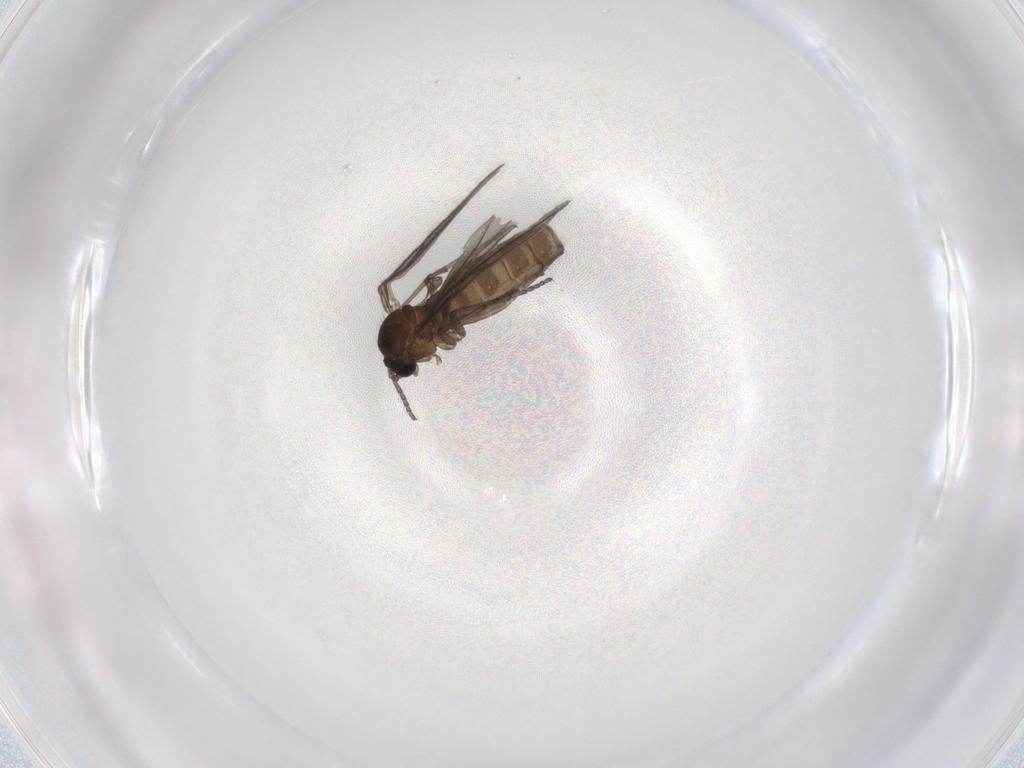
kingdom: Animalia
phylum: Arthropoda
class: Insecta
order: Diptera
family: Sciaridae
